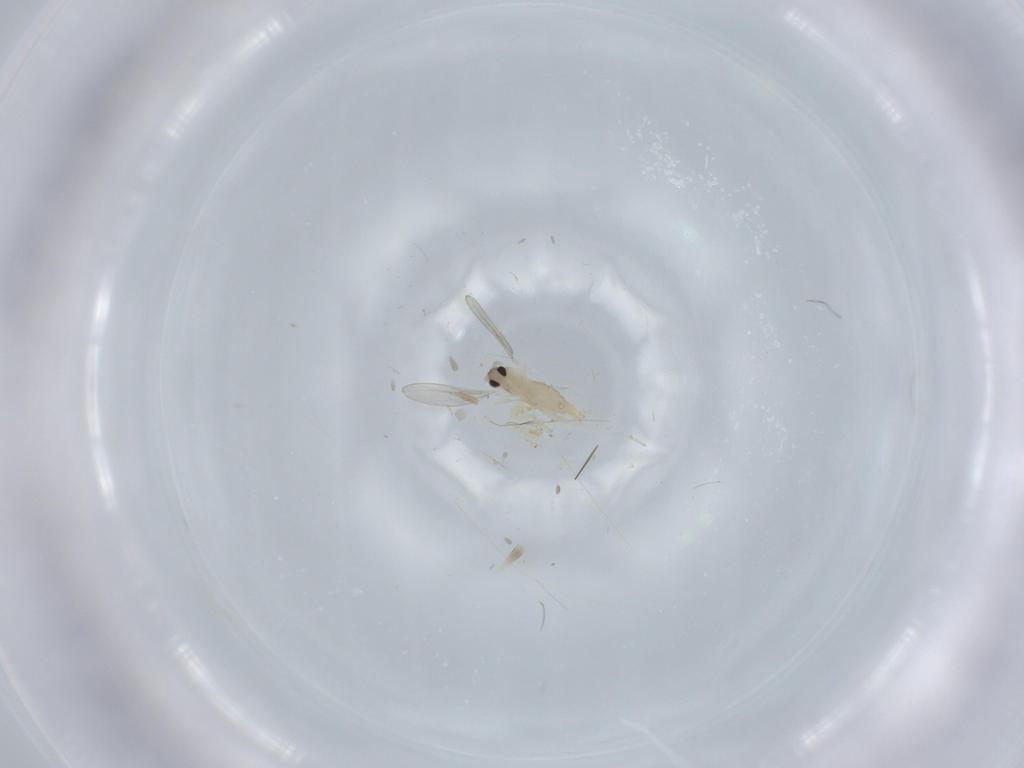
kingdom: Animalia
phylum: Arthropoda
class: Insecta
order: Diptera
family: Cecidomyiidae
